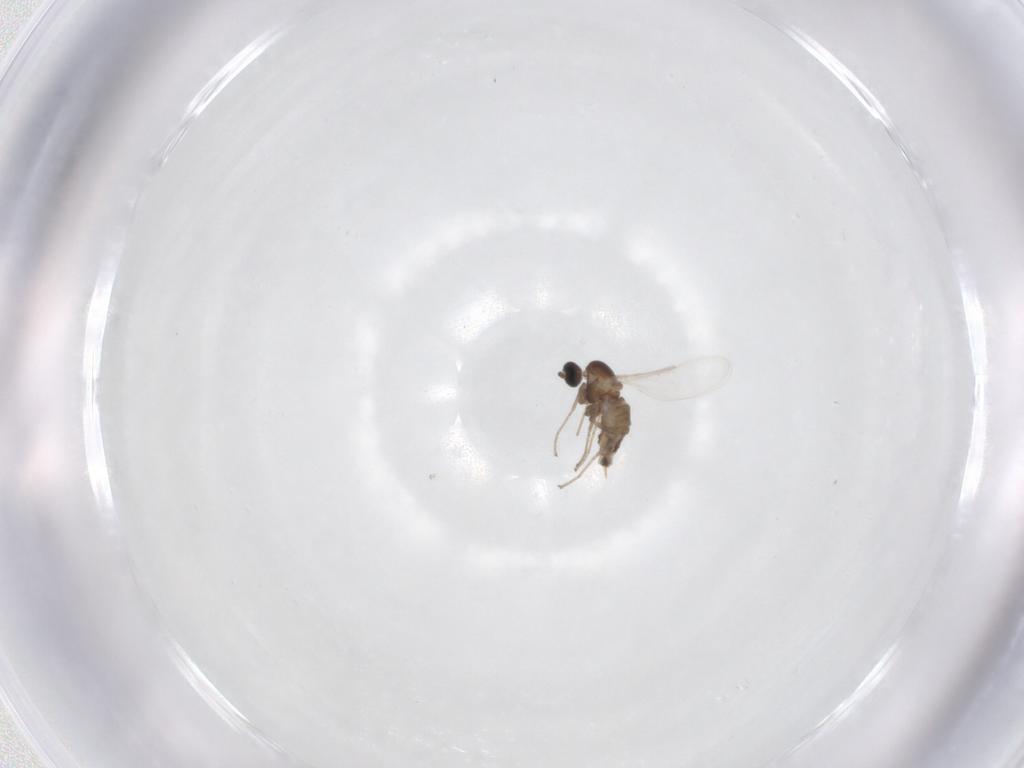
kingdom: Animalia
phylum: Arthropoda
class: Insecta
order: Diptera
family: Cecidomyiidae
